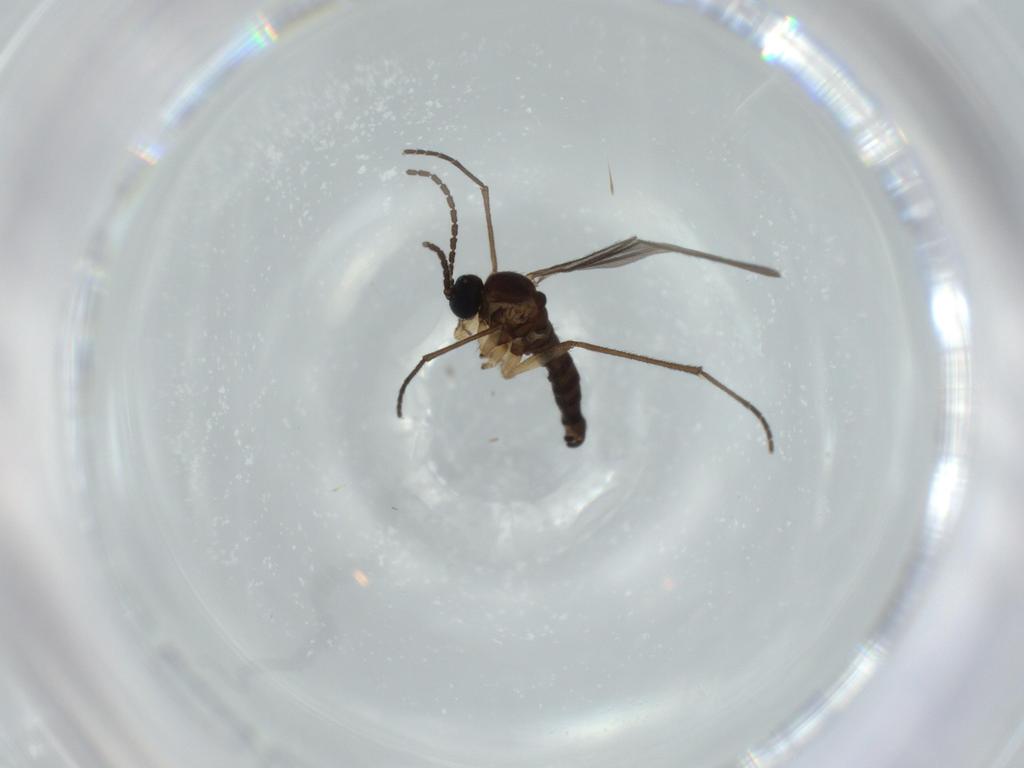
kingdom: Animalia
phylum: Arthropoda
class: Insecta
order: Diptera
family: Sciaridae
